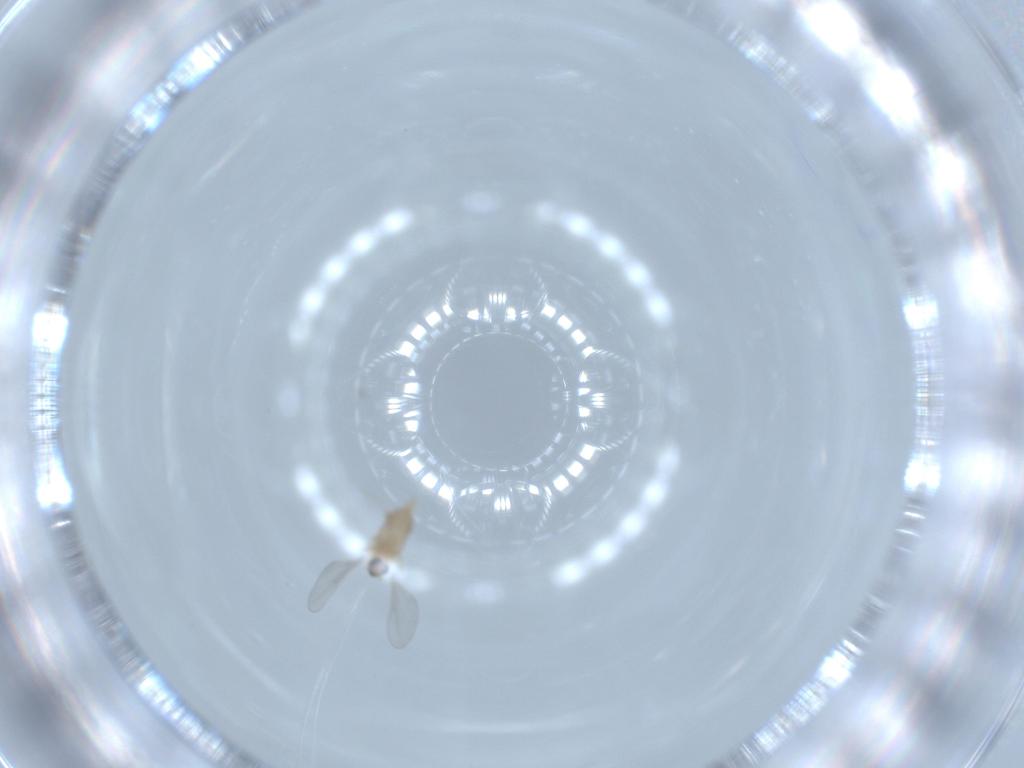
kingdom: Animalia
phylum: Arthropoda
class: Insecta
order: Diptera
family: Cecidomyiidae
